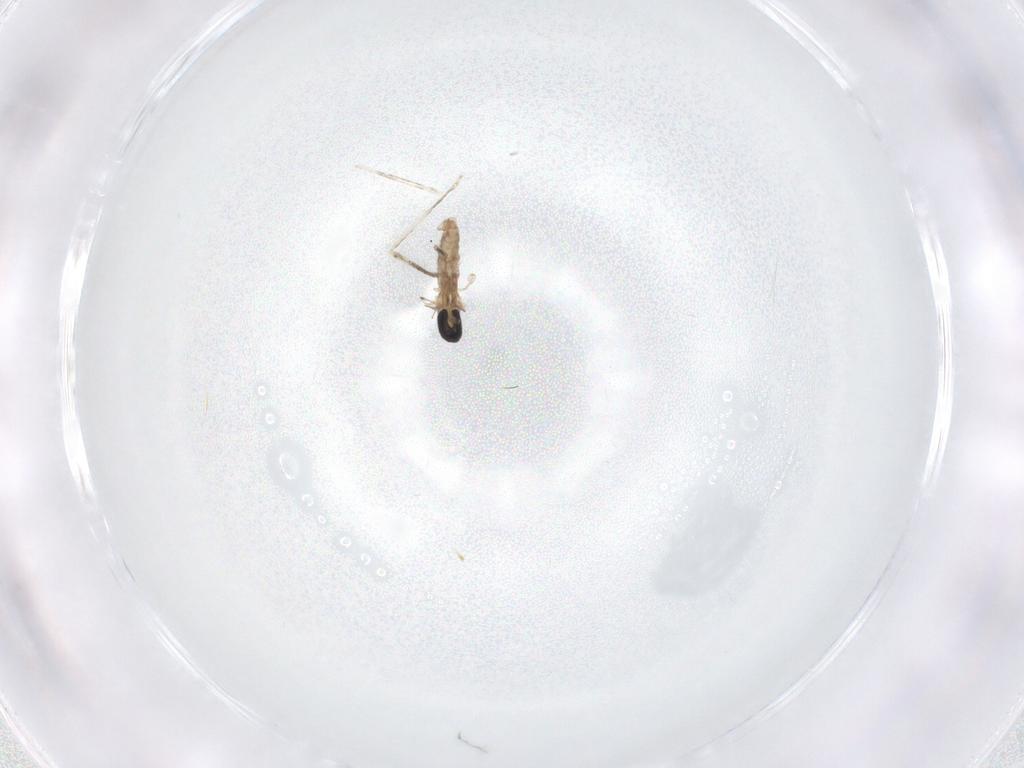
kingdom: Animalia
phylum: Arthropoda
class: Insecta
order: Diptera
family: Cecidomyiidae
